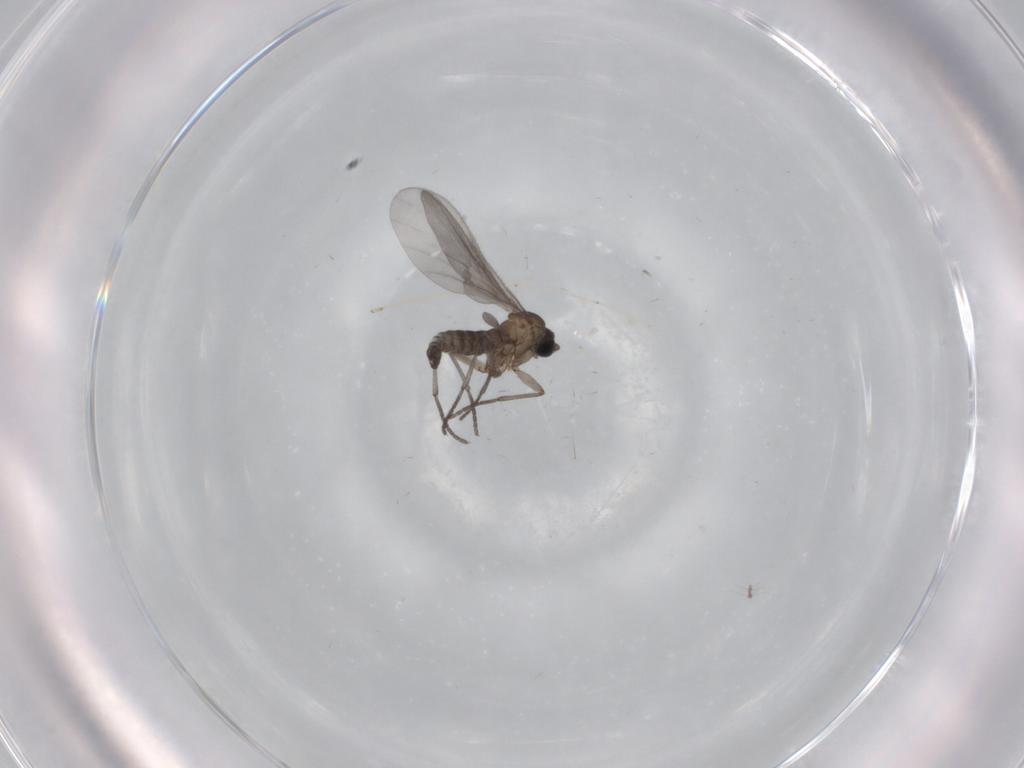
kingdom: Animalia
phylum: Arthropoda
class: Insecta
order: Diptera
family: Sciaridae
